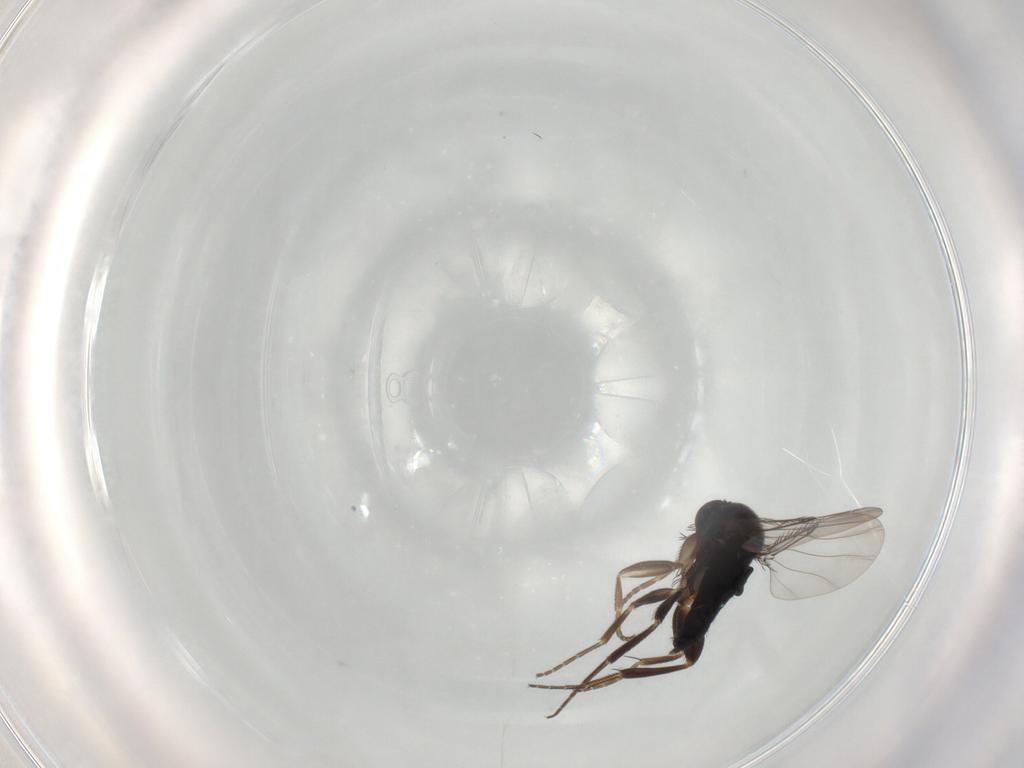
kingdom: Animalia
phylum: Arthropoda
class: Insecta
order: Diptera
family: Phoridae
